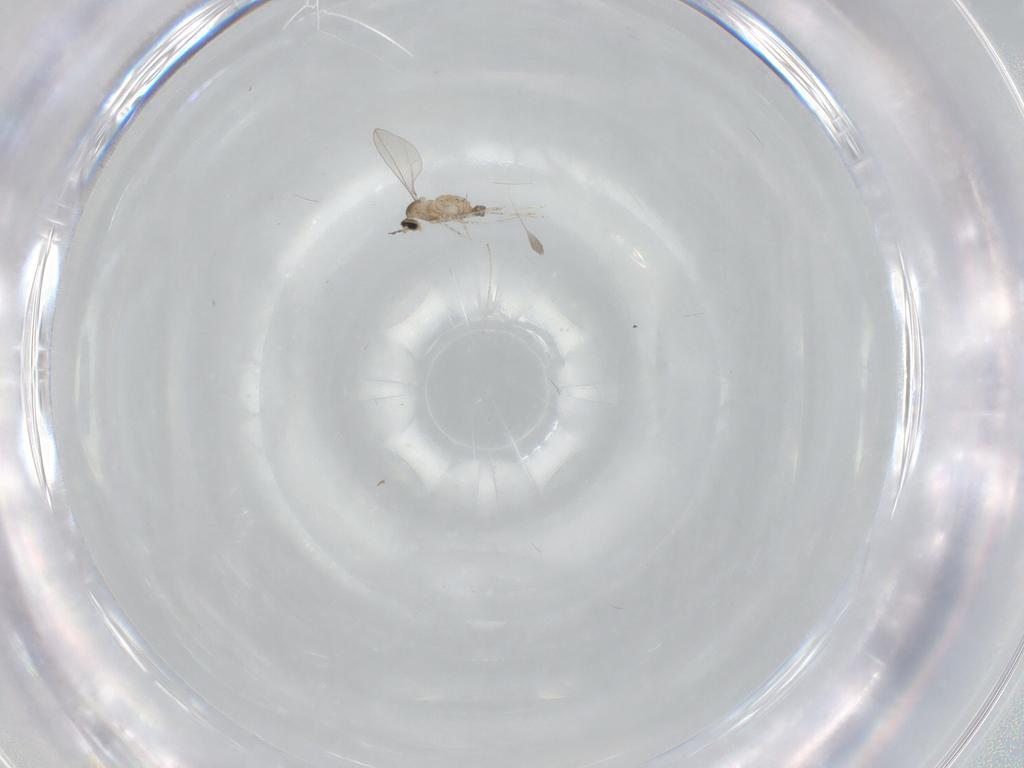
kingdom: Animalia
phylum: Arthropoda
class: Insecta
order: Diptera
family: Cecidomyiidae
